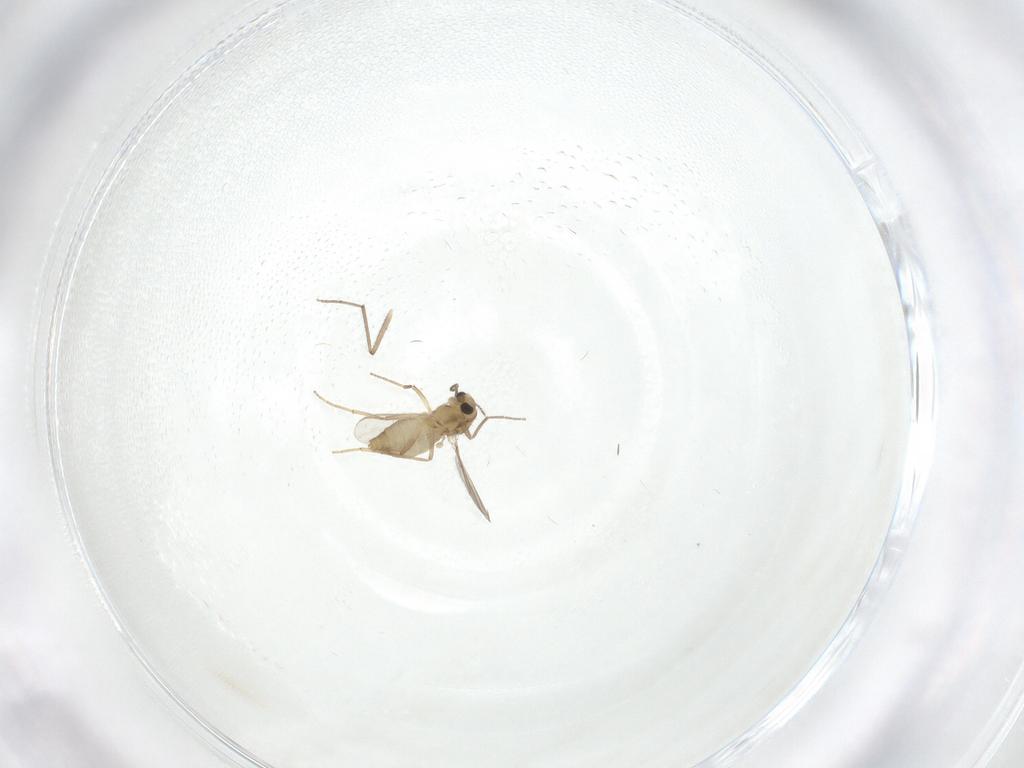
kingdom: Animalia
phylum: Arthropoda
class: Insecta
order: Diptera
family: Chironomidae
